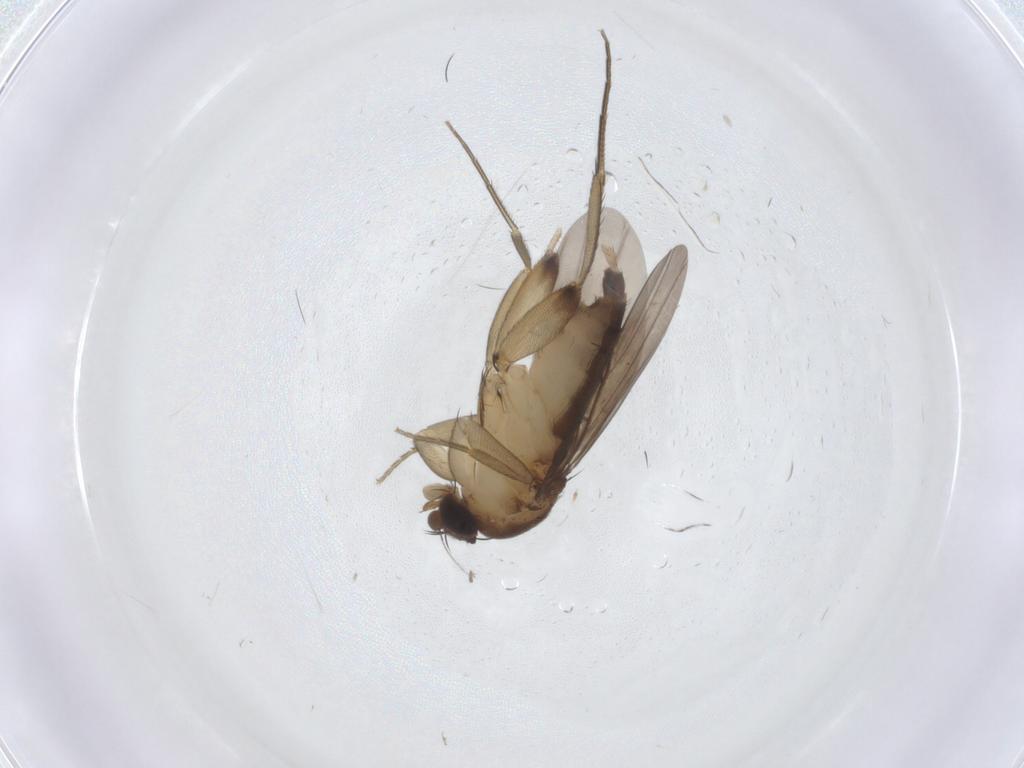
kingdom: Animalia
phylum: Arthropoda
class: Insecta
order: Diptera
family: Phoridae
